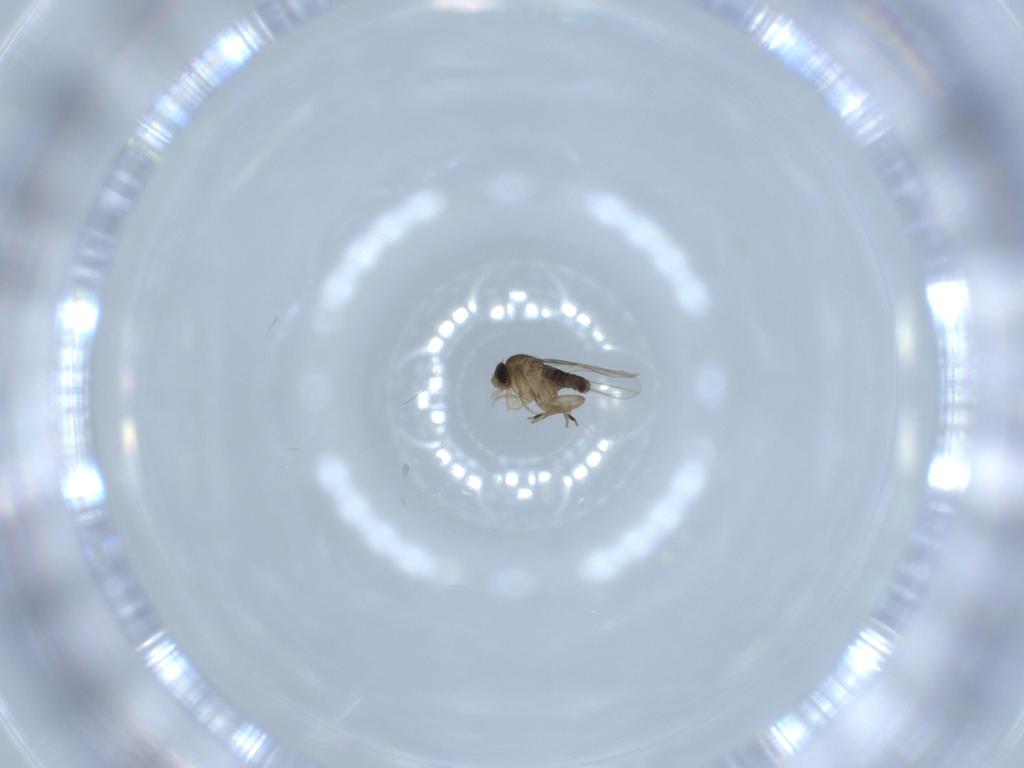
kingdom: Animalia
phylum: Arthropoda
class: Insecta
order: Diptera
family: Phoridae
